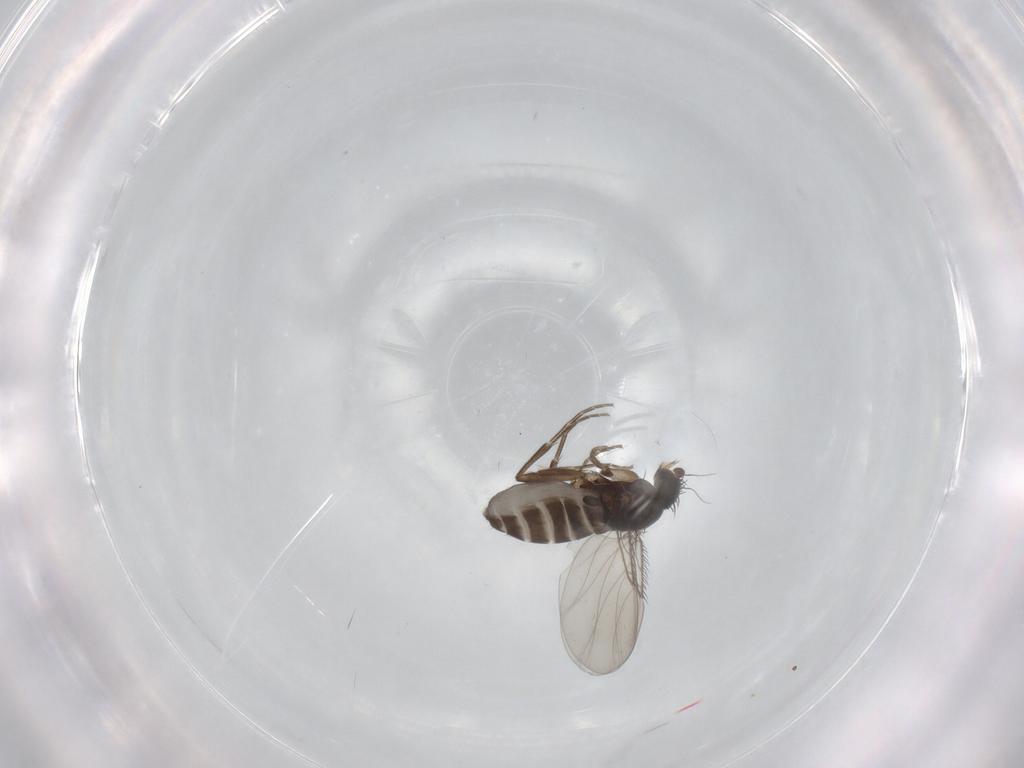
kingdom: Animalia
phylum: Arthropoda
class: Insecta
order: Diptera
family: Phoridae
